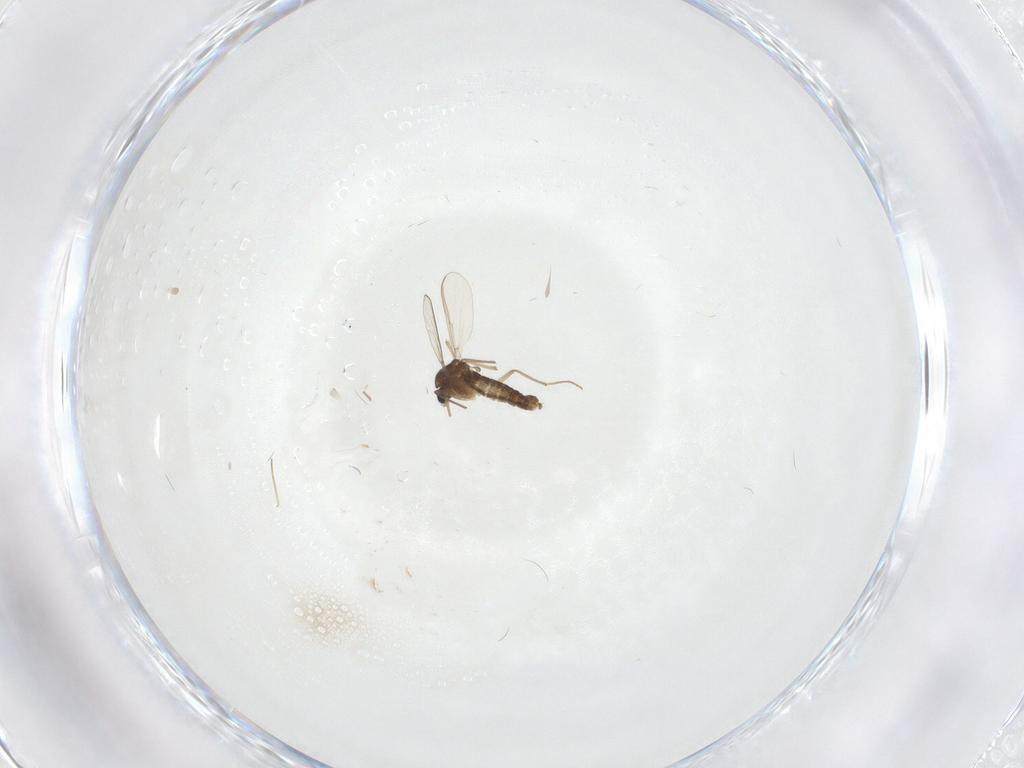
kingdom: Animalia
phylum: Arthropoda
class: Insecta
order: Diptera
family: Chironomidae
